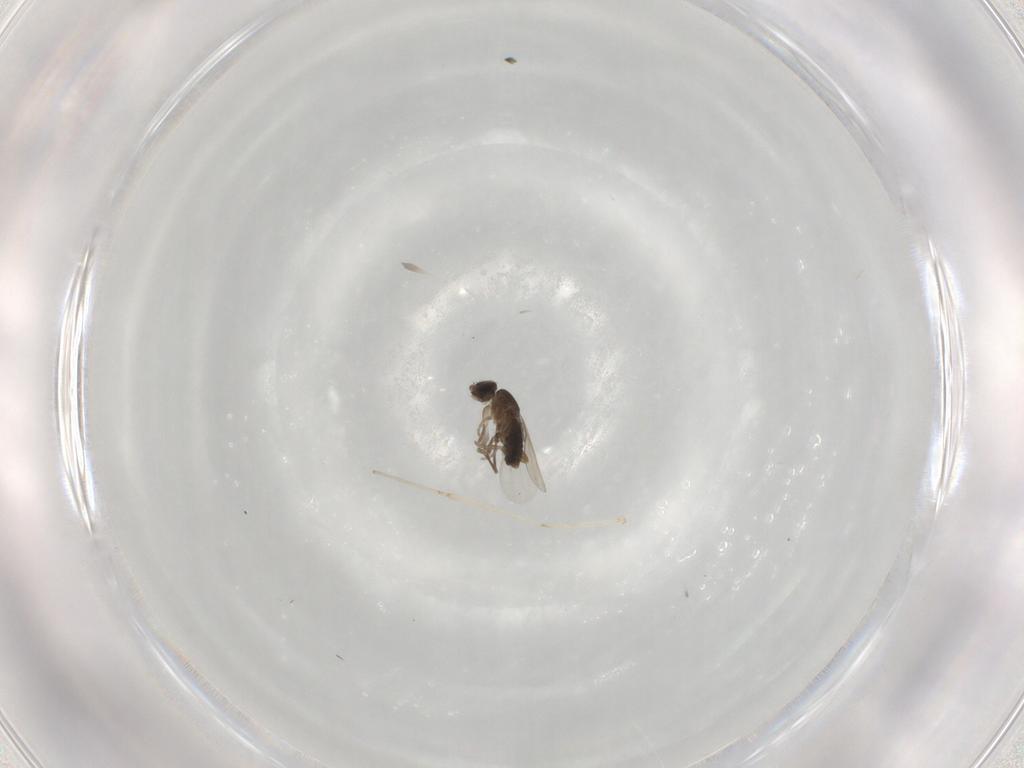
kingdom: Animalia
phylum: Arthropoda
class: Insecta
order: Diptera
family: Phoridae
